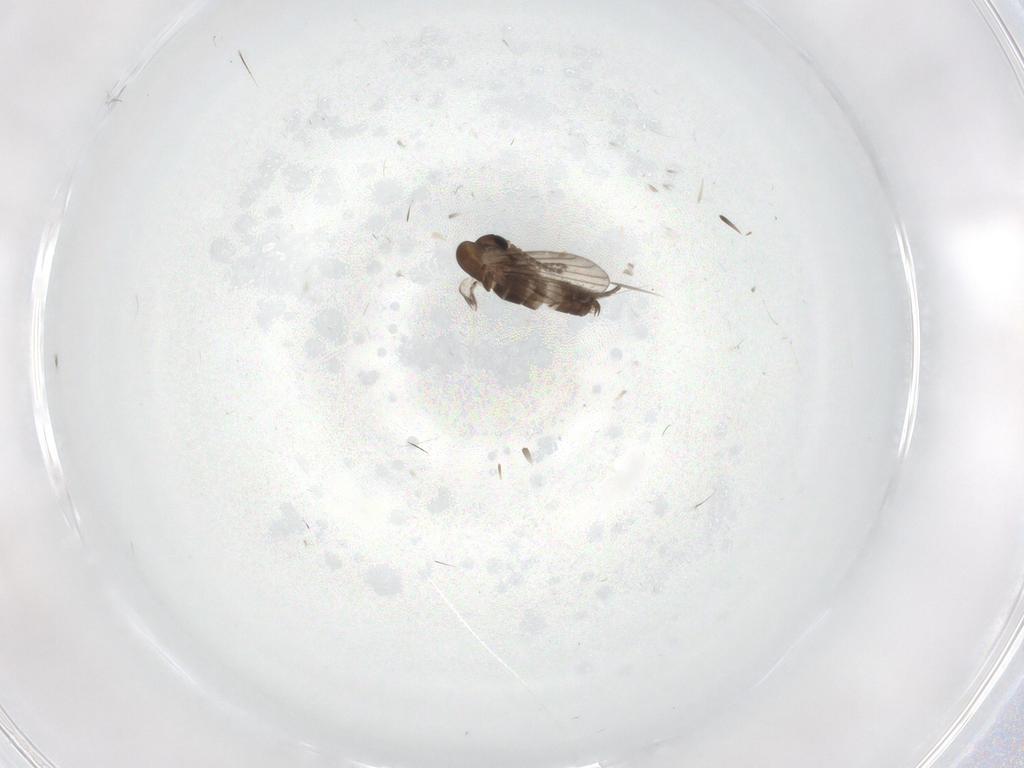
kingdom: Animalia
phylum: Arthropoda
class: Insecta
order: Diptera
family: Limoniidae
